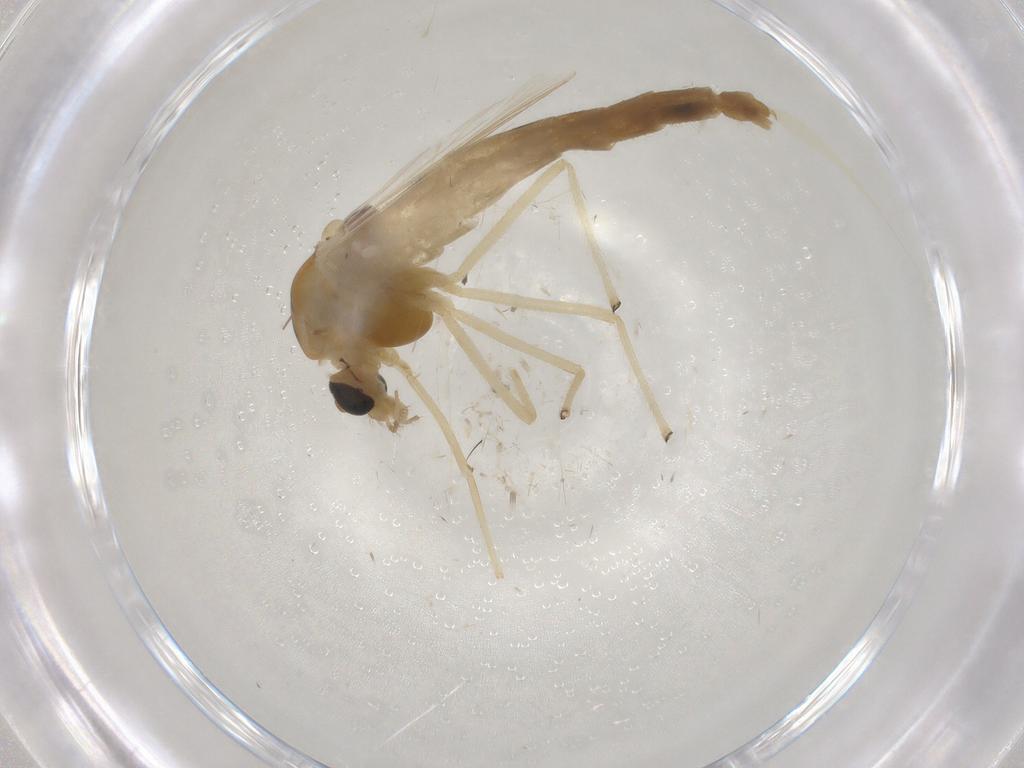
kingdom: Animalia
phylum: Arthropoda
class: Insecta
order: Diptera
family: Chironomidae
